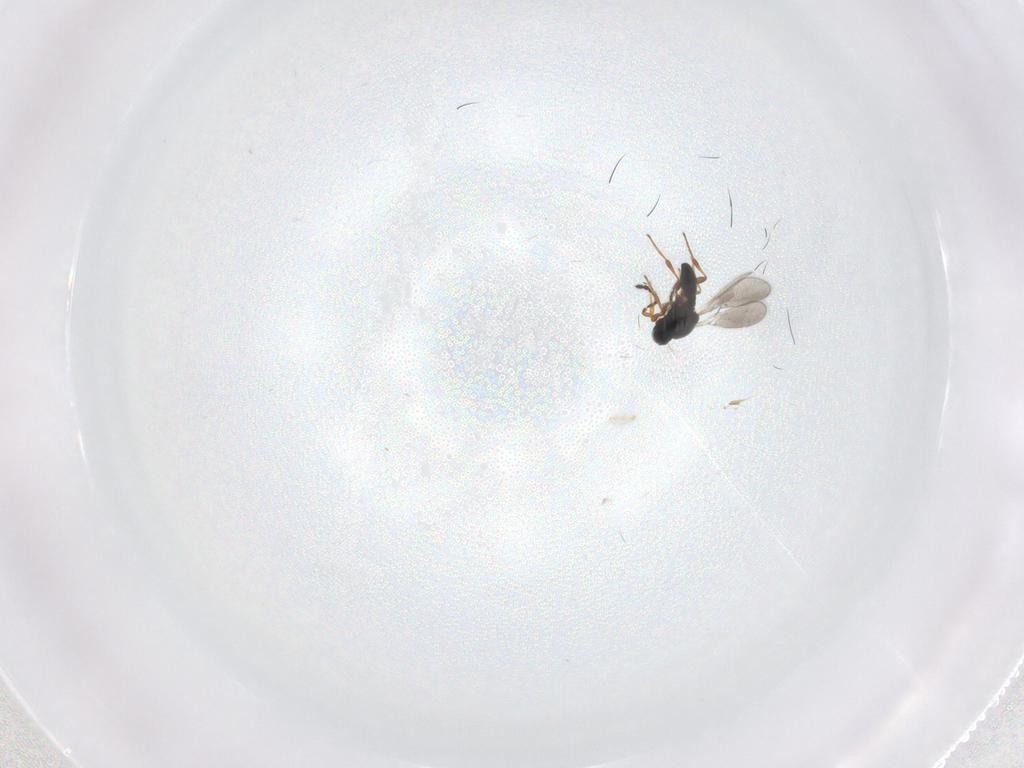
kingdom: Animalia
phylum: Arthropoda
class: Insecta
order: Hymenoptera
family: Platygastridae
